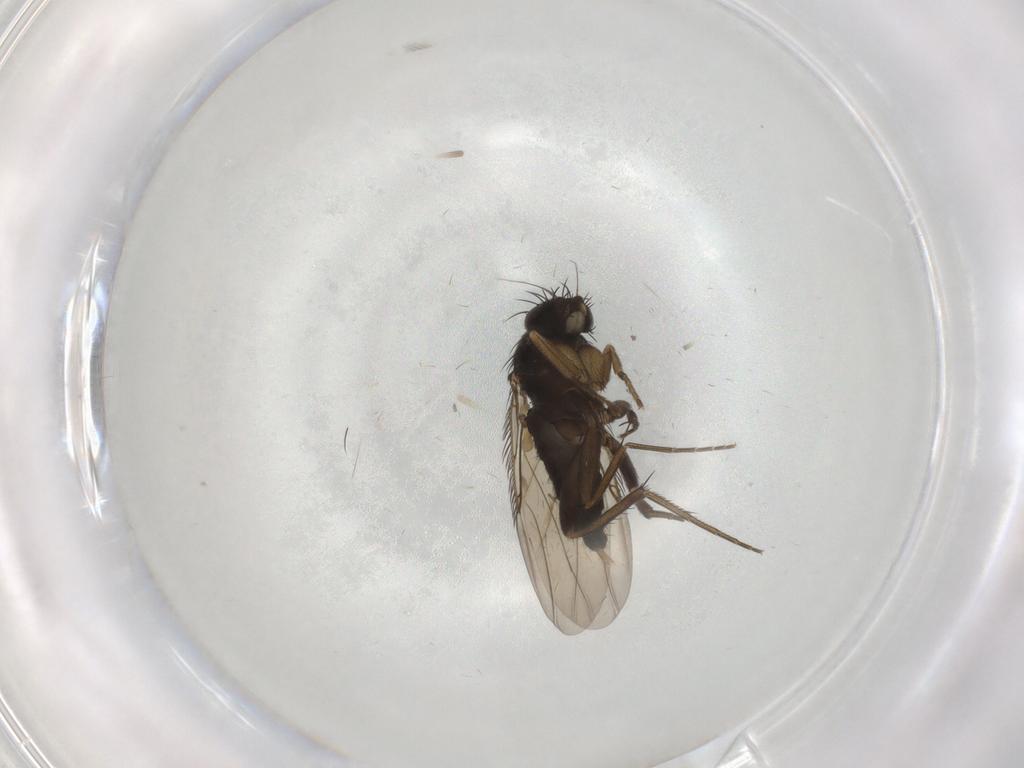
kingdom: Animalia
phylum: Arthropoda
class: Insecta
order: Diptera
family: Phoridae
